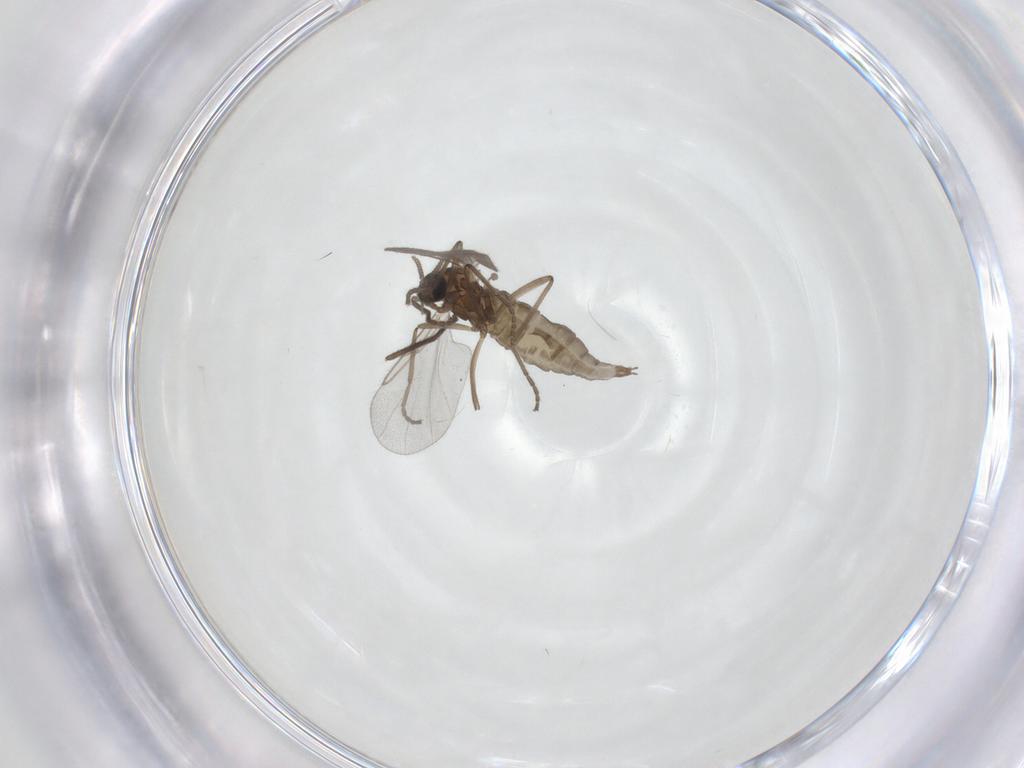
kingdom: Animalia
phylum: Arthropoda
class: Insecta
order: Diptera
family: Cecidomyiidae
